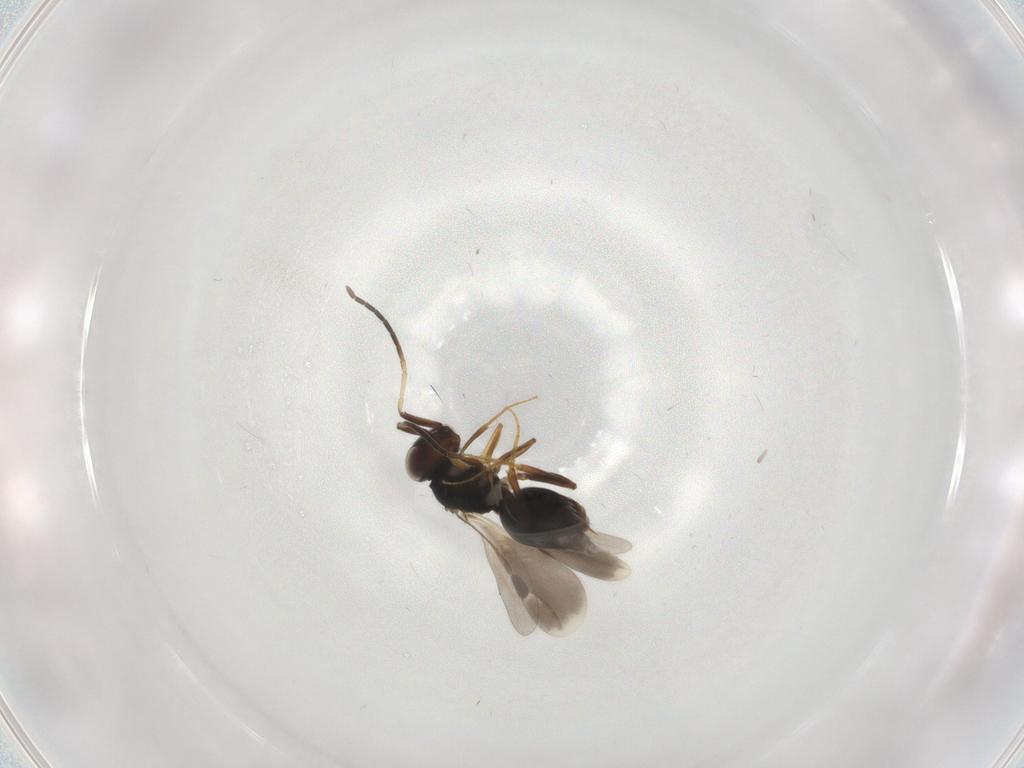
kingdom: Animalia
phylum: Arthropoda
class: Insecta
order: Hymenoptera
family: Megaspilidae
